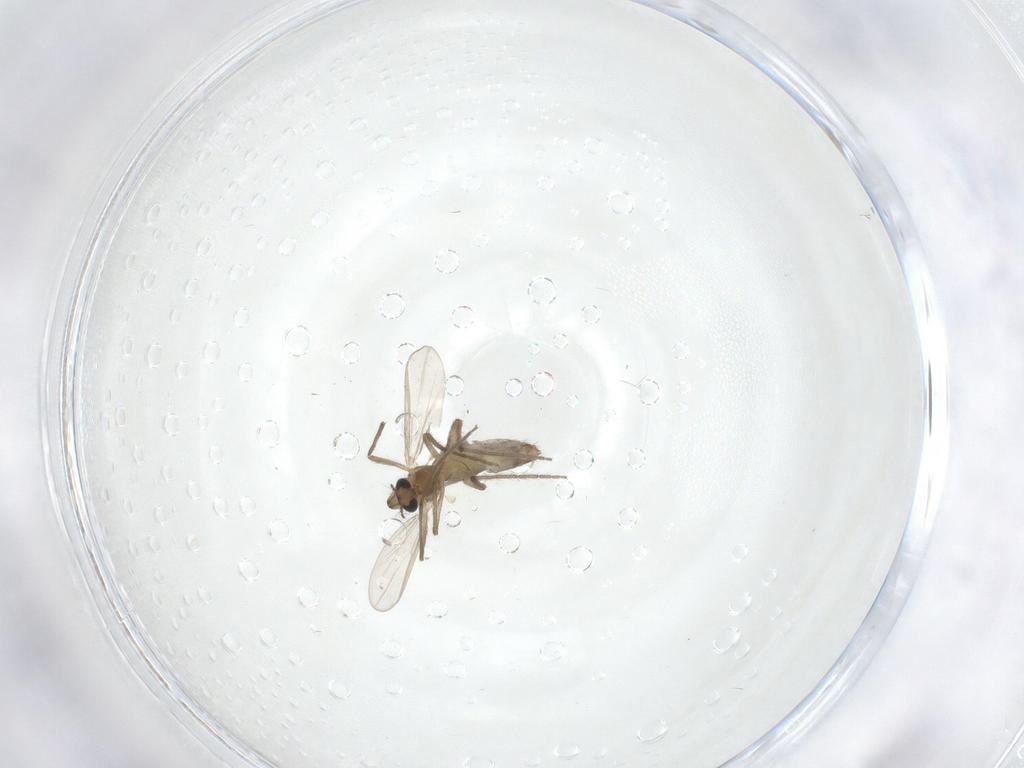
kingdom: Animalia
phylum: Arthropoda
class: Insecta
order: Diptera
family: Chironomidae
